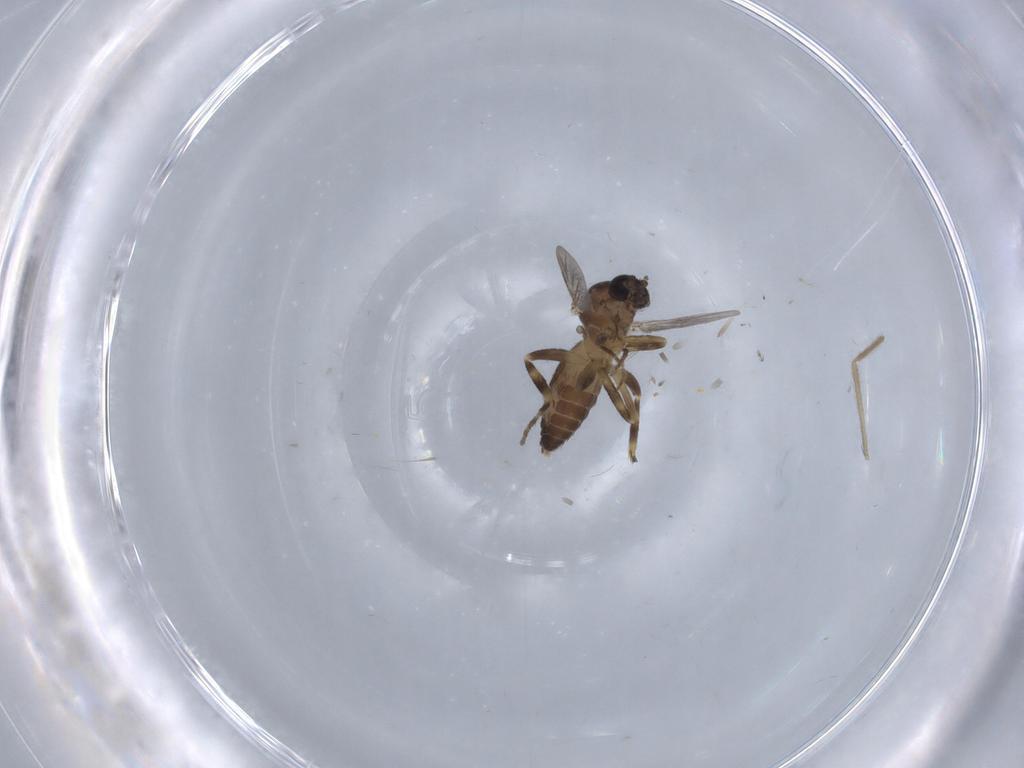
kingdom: Animalia
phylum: Arthropoda
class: Insecta
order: Diptera
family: Ceratopogonidae
